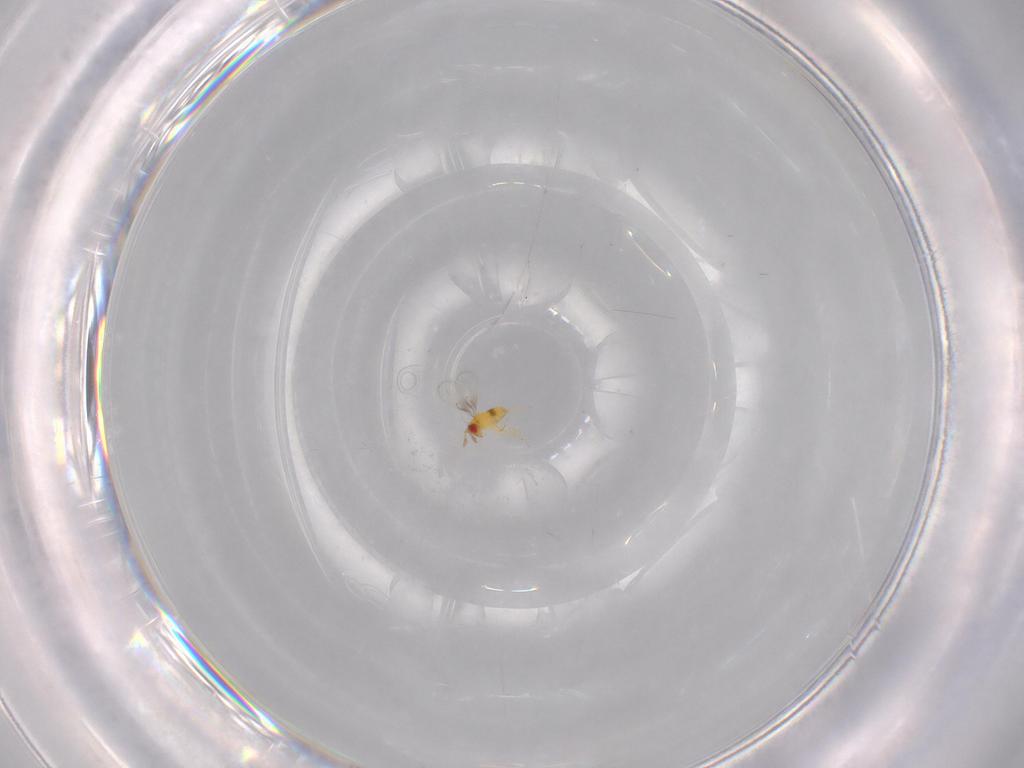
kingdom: Animalia
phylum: Arthropoda
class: Insecta
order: Hymenoptera
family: Trichogrammatidae
